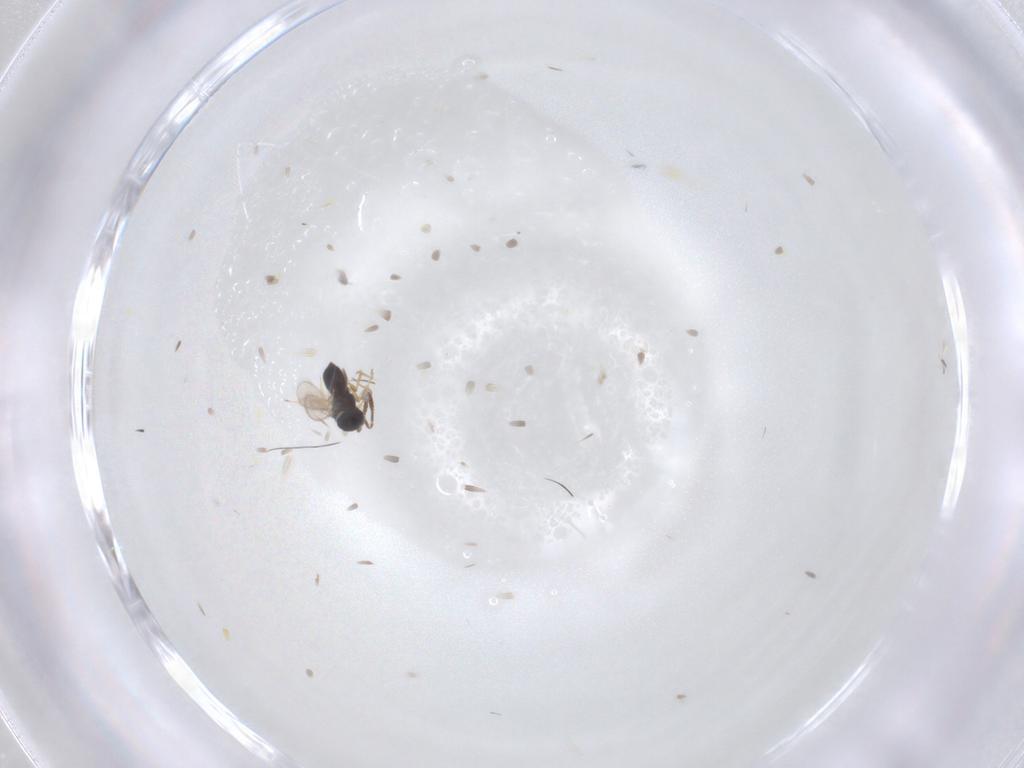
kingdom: Animalia
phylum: Arthropoda
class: Insecta
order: Hymenoptera
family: Scelionidae
